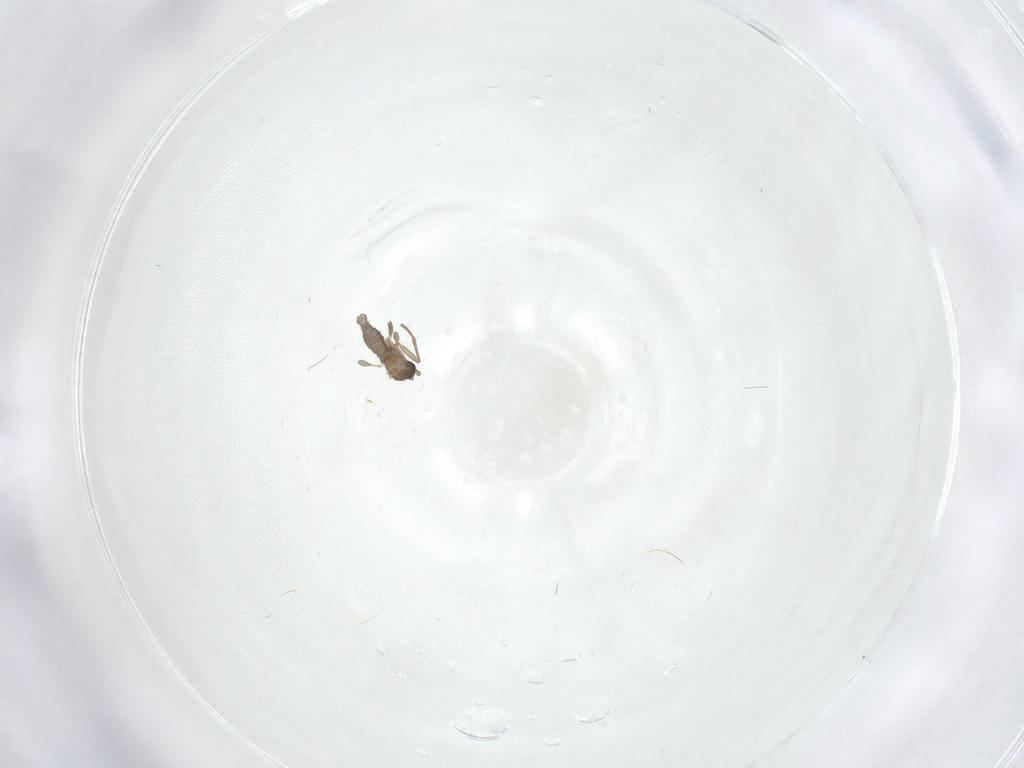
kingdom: Animalia
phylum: Arthropoda
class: Insecta
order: Diptera
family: Sciaridae
